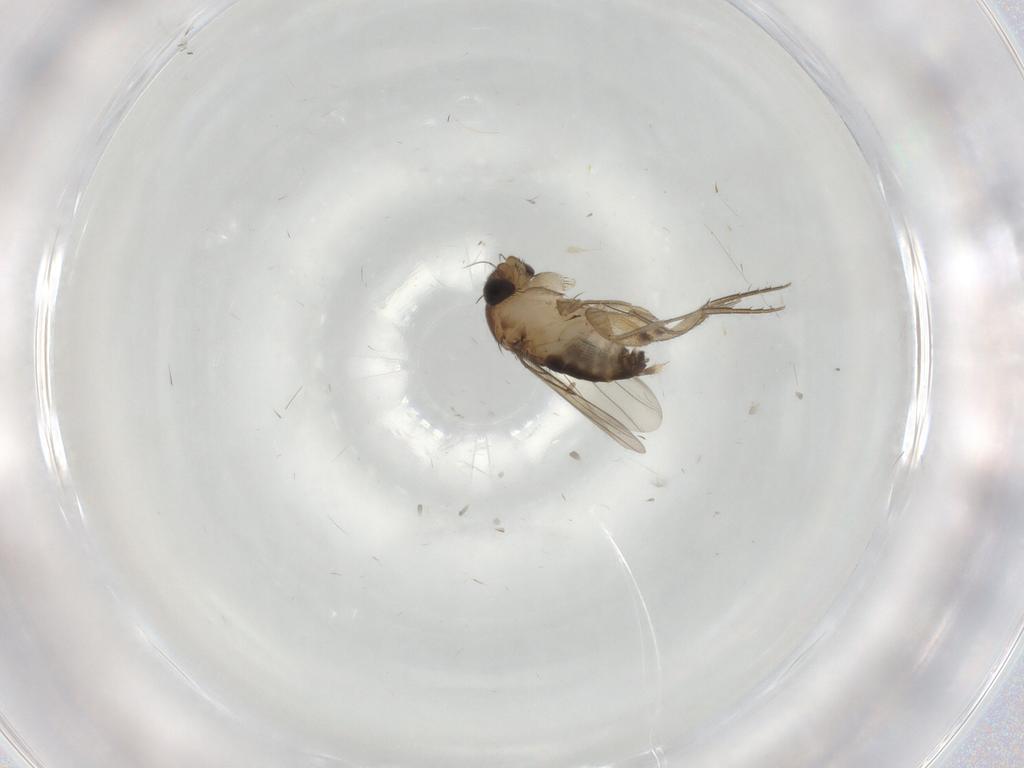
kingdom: Animalia
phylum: Arthropoda
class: Insecta
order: Diptera
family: Phoridae
